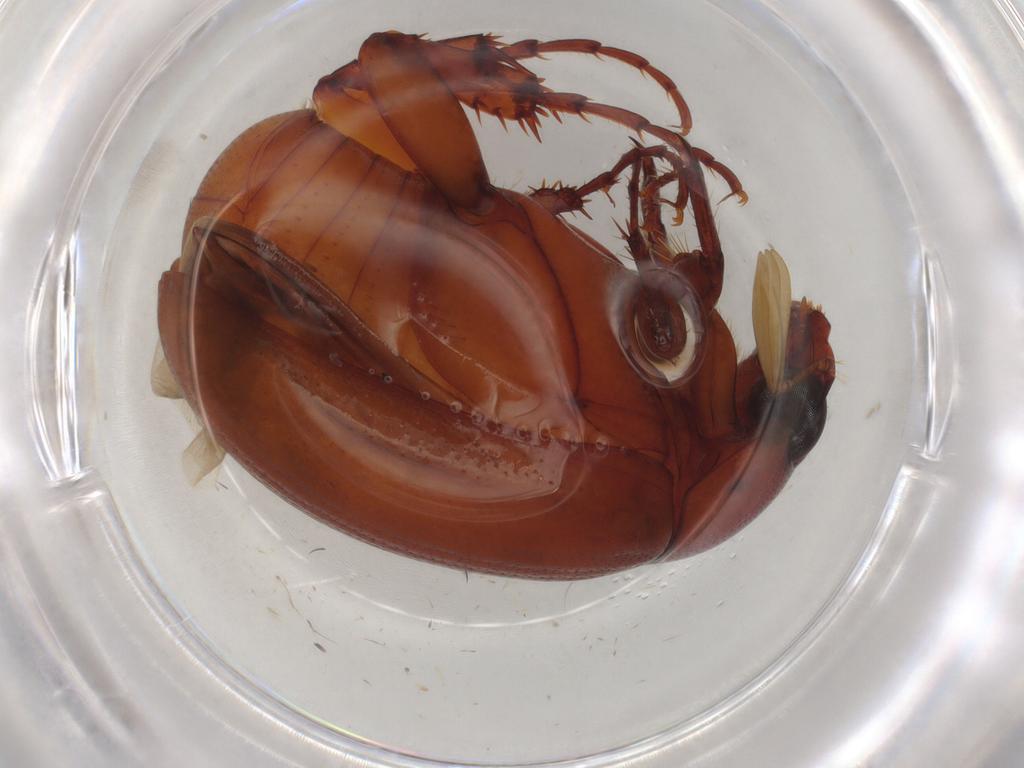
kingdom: Animalia
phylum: Arthropoda
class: Insecta
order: Coleoptera
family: Melolonthidae
